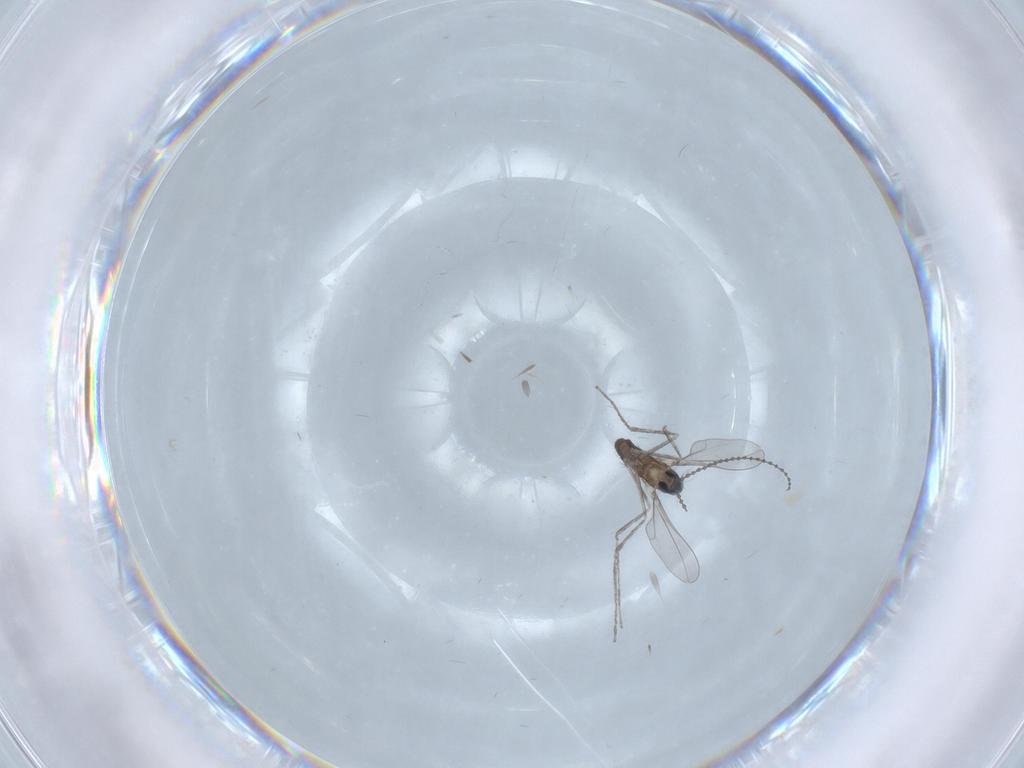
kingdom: Animalia
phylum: Arthropoda
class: Insecta
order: Diptera
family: Cecidomyiidae
